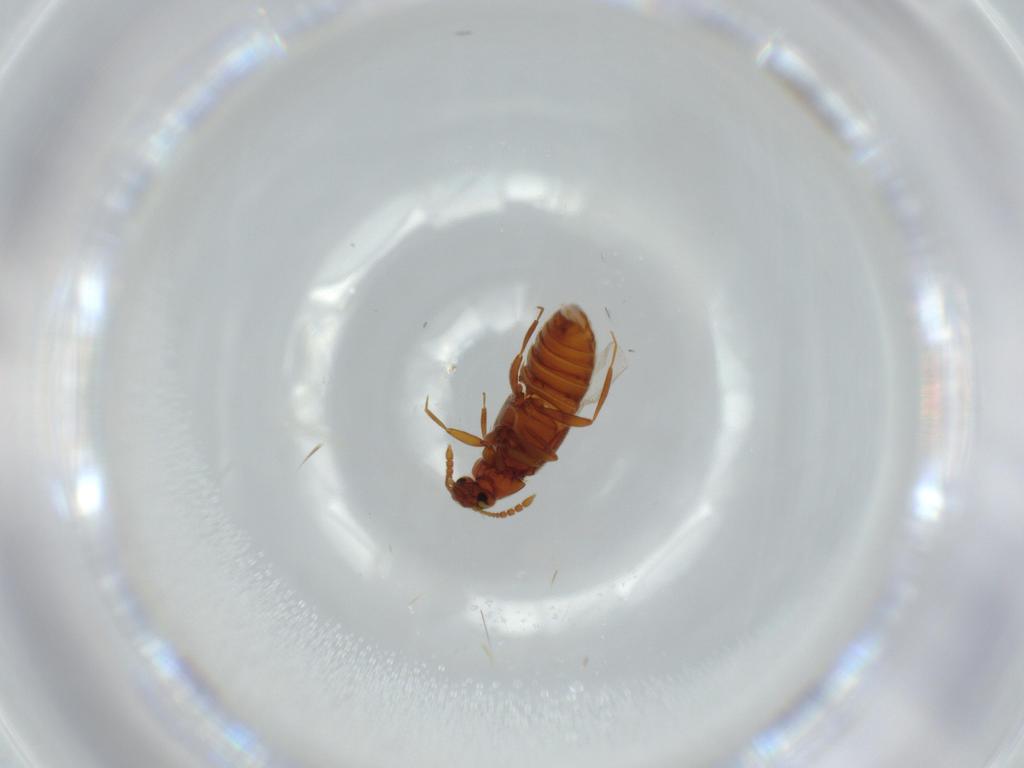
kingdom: Animalia
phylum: Arthropoda
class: Insecta
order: Coleoptera
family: Staphylinidae
